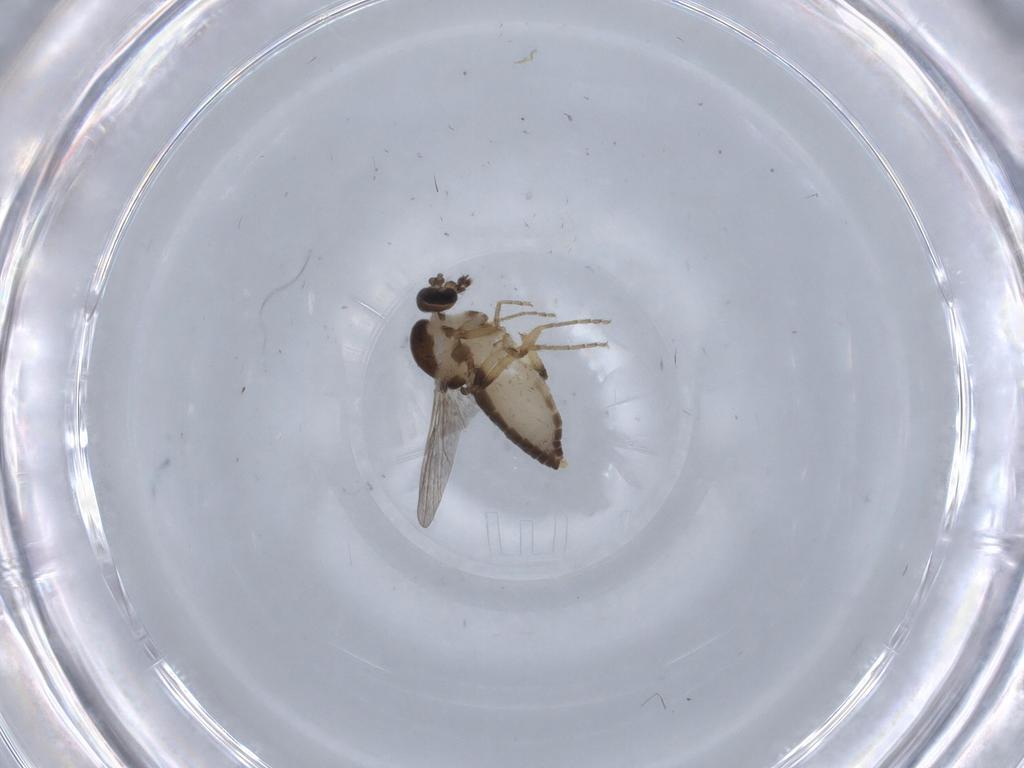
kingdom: Animalia
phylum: Arthropoda
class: Insecta
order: Diptera
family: Ceratopogonidae
